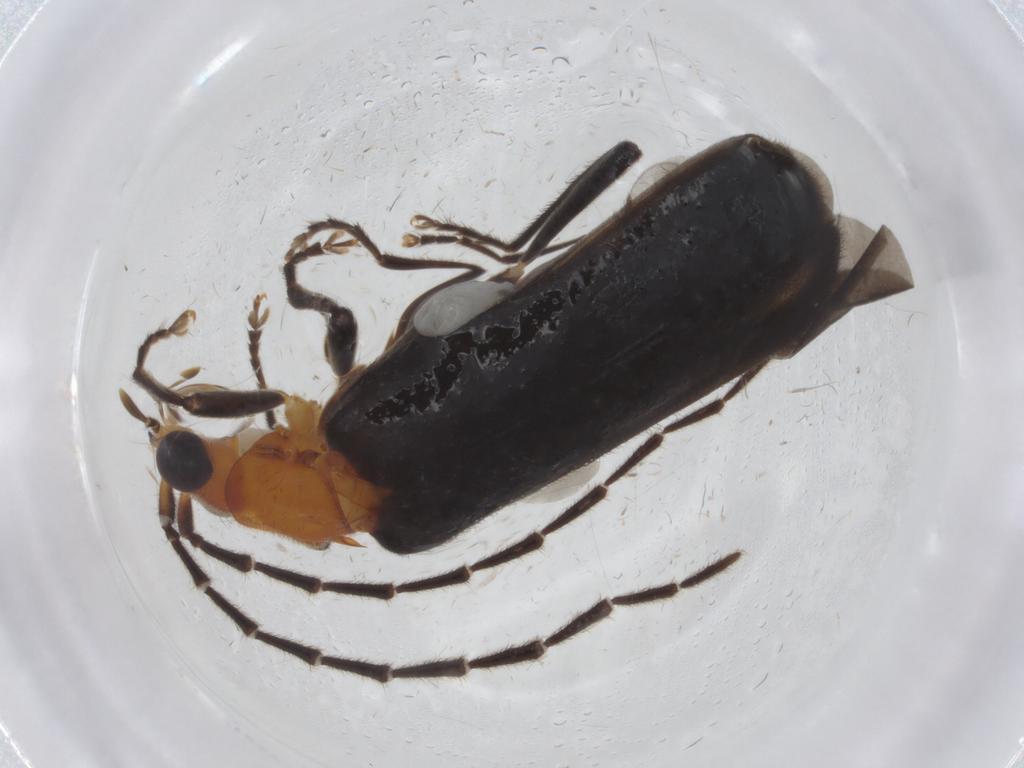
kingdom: Animalia
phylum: Arthropoda
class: Insecta
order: Coleoptera
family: Cantharidae
